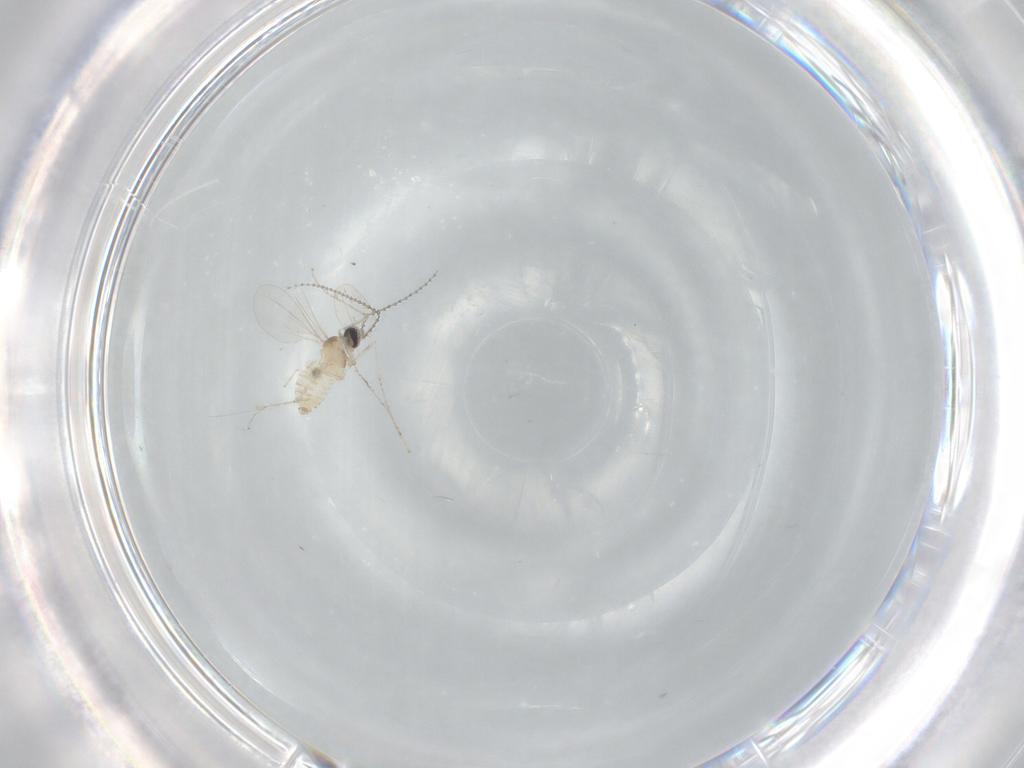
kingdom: Animalia
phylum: Arthropoda
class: Insecta
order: Diptera
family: Cecidomyiidae
